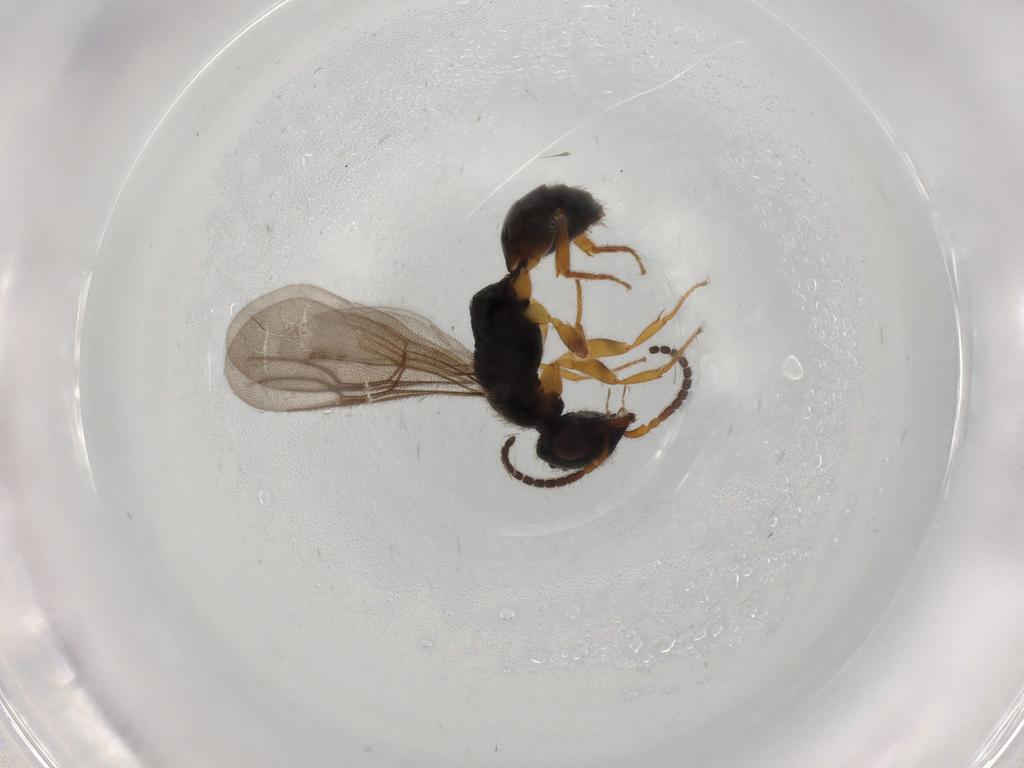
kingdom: Animalia
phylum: Arthropoda
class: Insecta
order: Hymenoptera
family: Bethylidae
